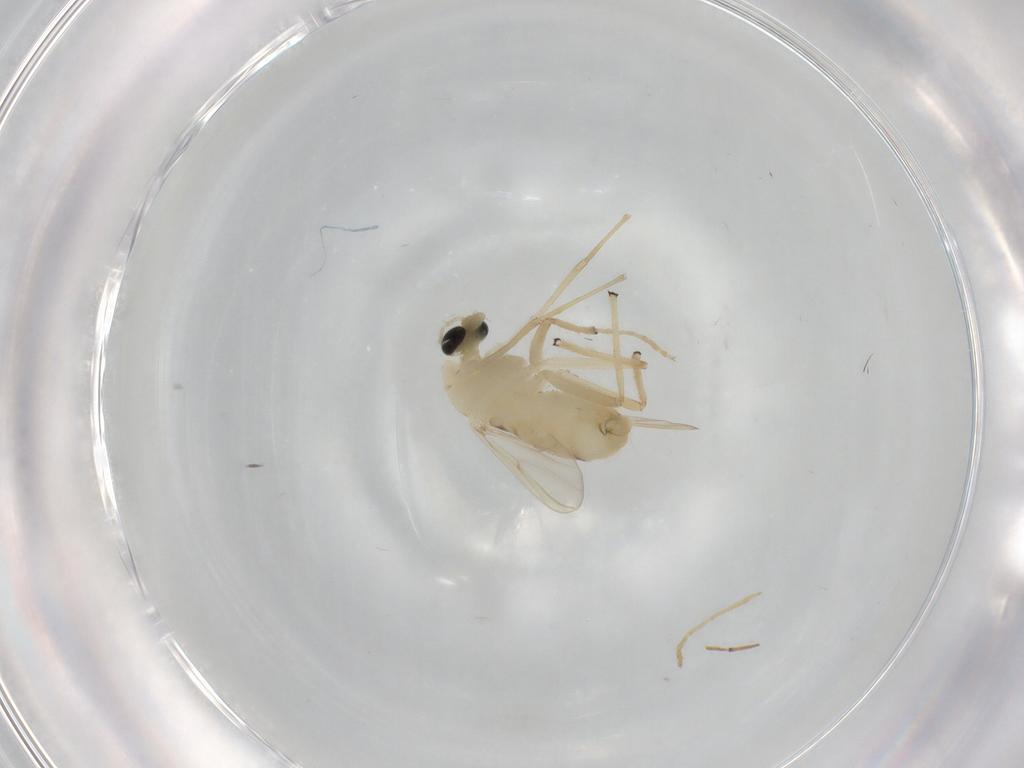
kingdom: Animalia
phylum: Arthropoda
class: Insecta
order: Diptera
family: Chironomidae
